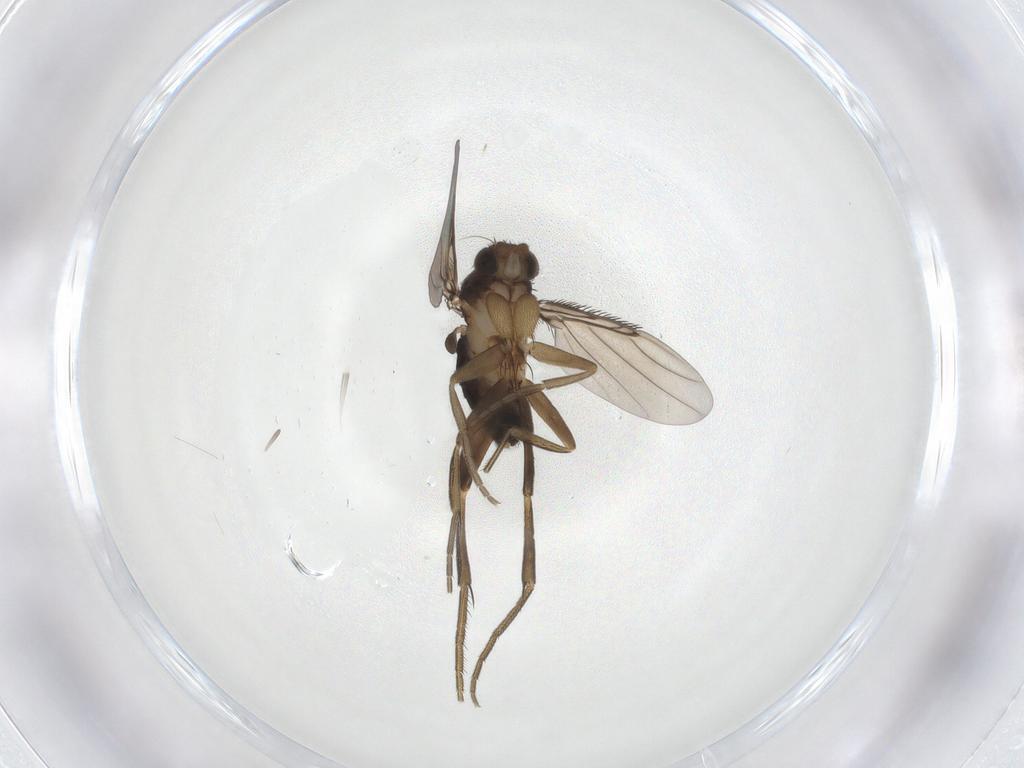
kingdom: Animalia
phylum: Arthropoda
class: Insecta
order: Diptera
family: Phoridae
